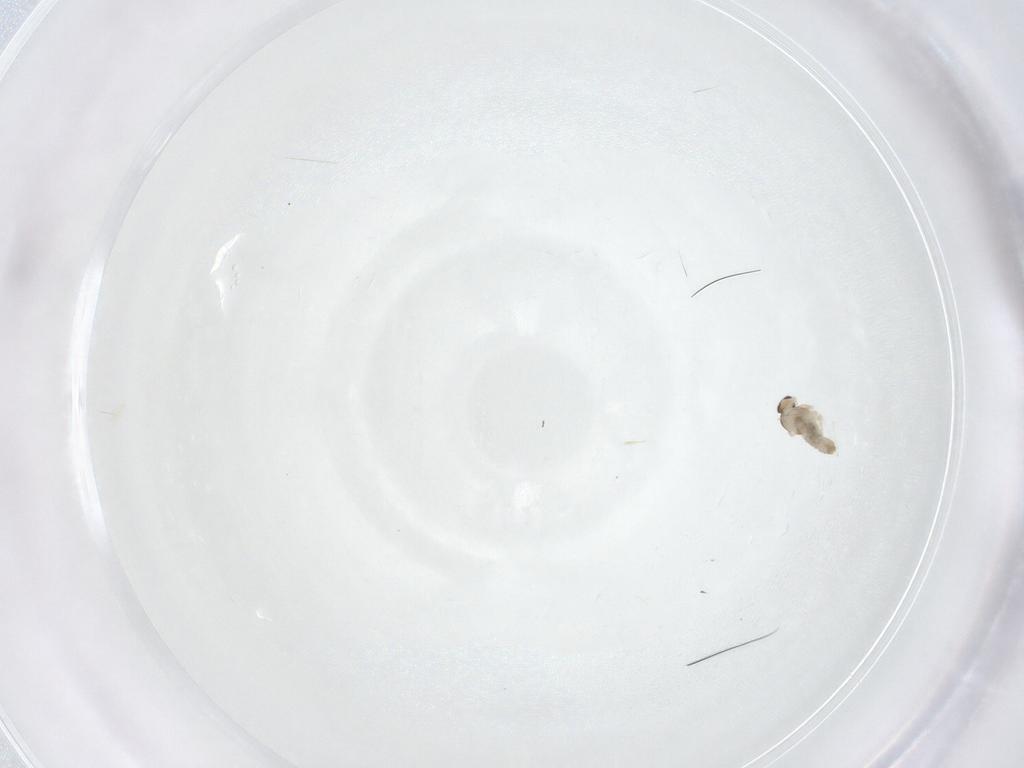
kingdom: Animalia
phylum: Arthropoda
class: Insecta
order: Diptera
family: Cecidomyiidae
